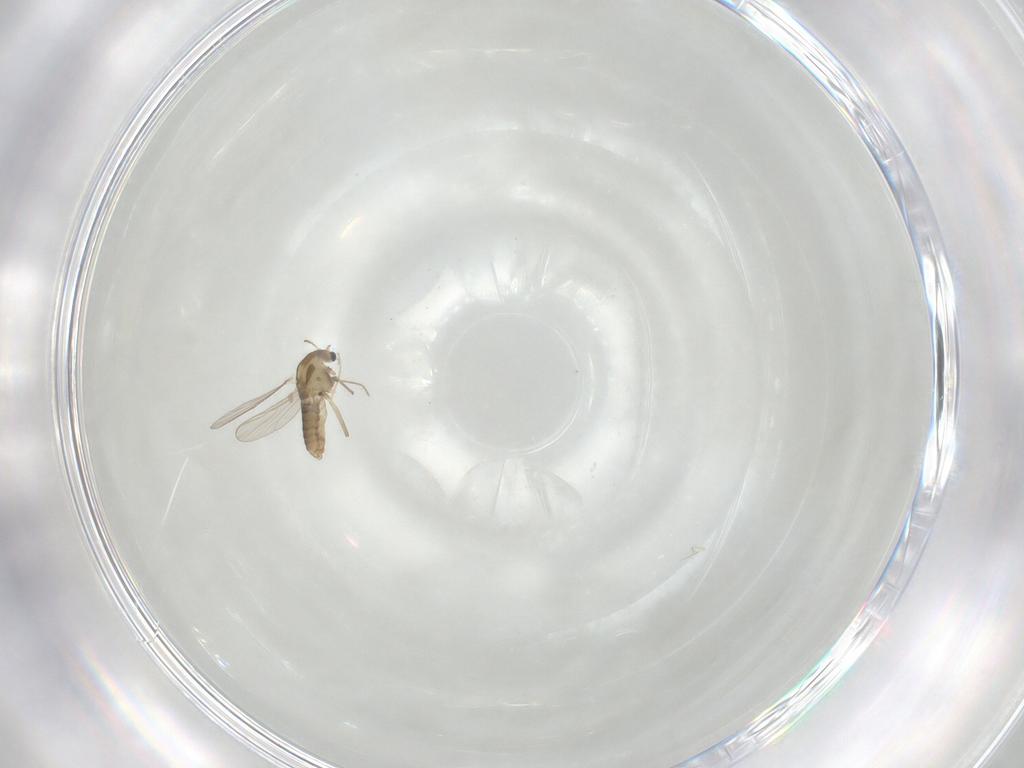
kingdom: Animalia
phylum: Arthropoda
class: Insecta
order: Diptera
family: Chironomidae
